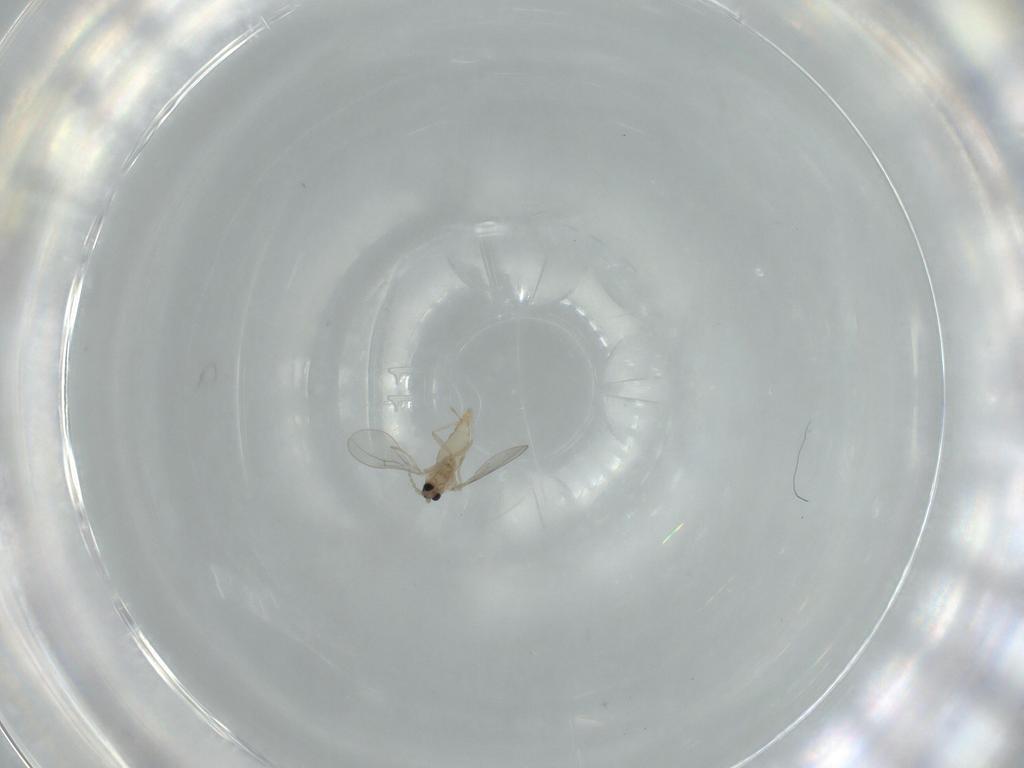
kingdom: Animalia
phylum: Arthropoda
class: Insecta
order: Diptera
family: Cecidomyiidae
